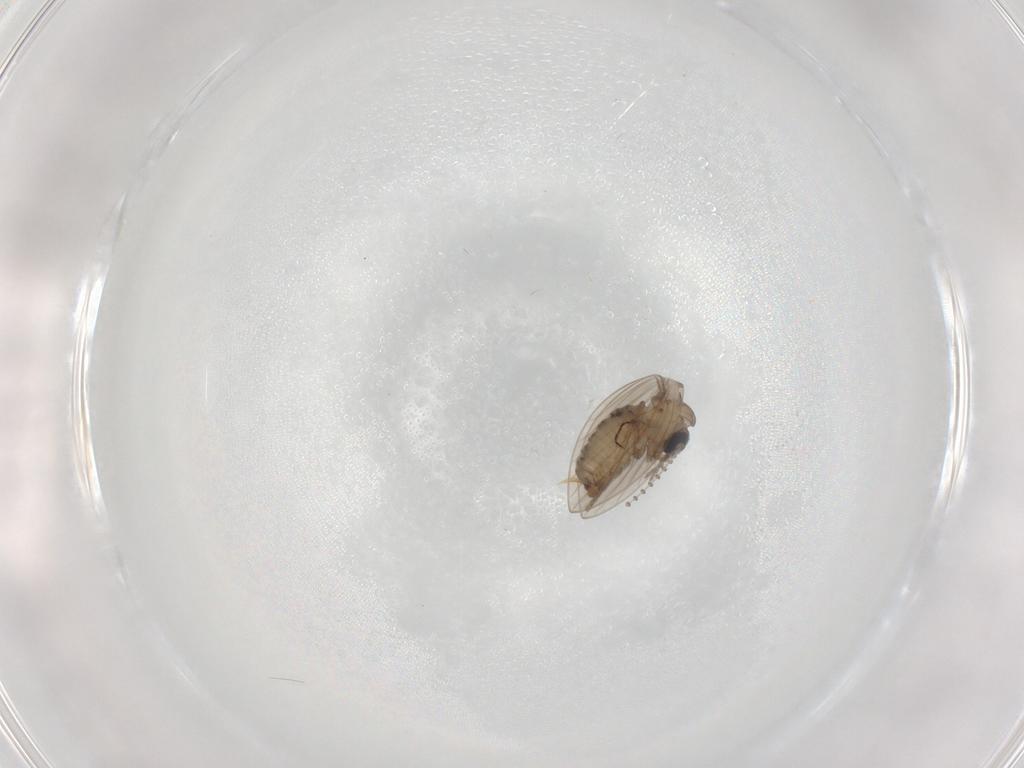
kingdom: Animalia
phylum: Arthropoda
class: Insecta
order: Diptera
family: Psychodidae
